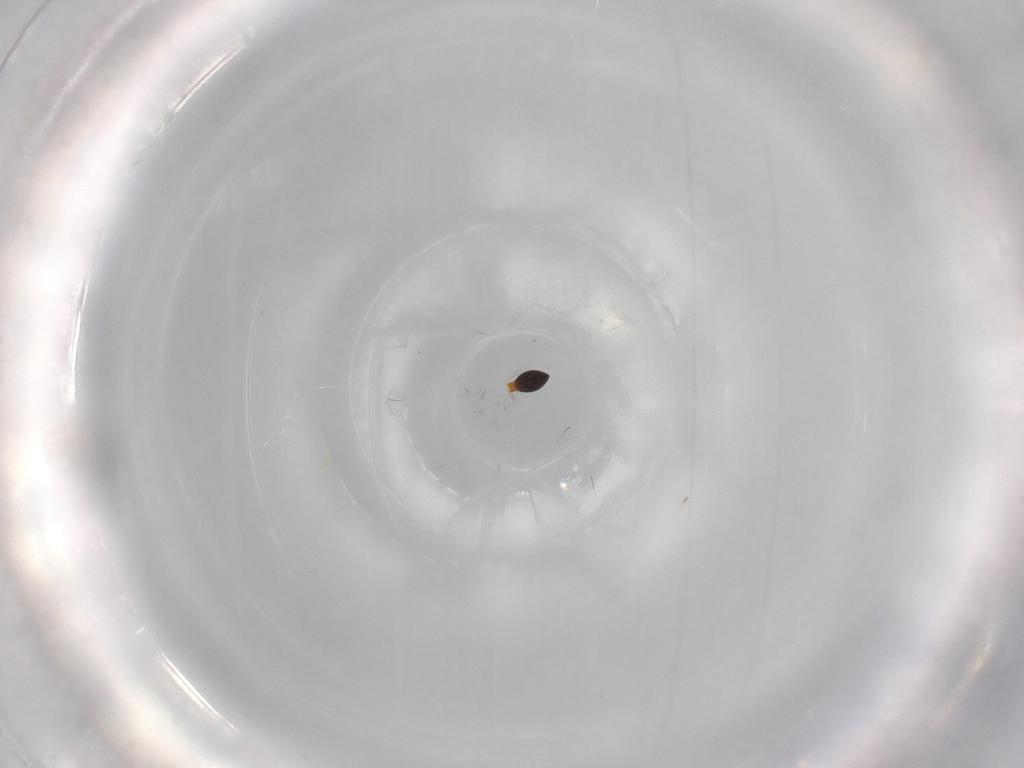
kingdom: Animalia
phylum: Arthropoda
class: Insecta
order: Hymenoptera
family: Platygastridae
